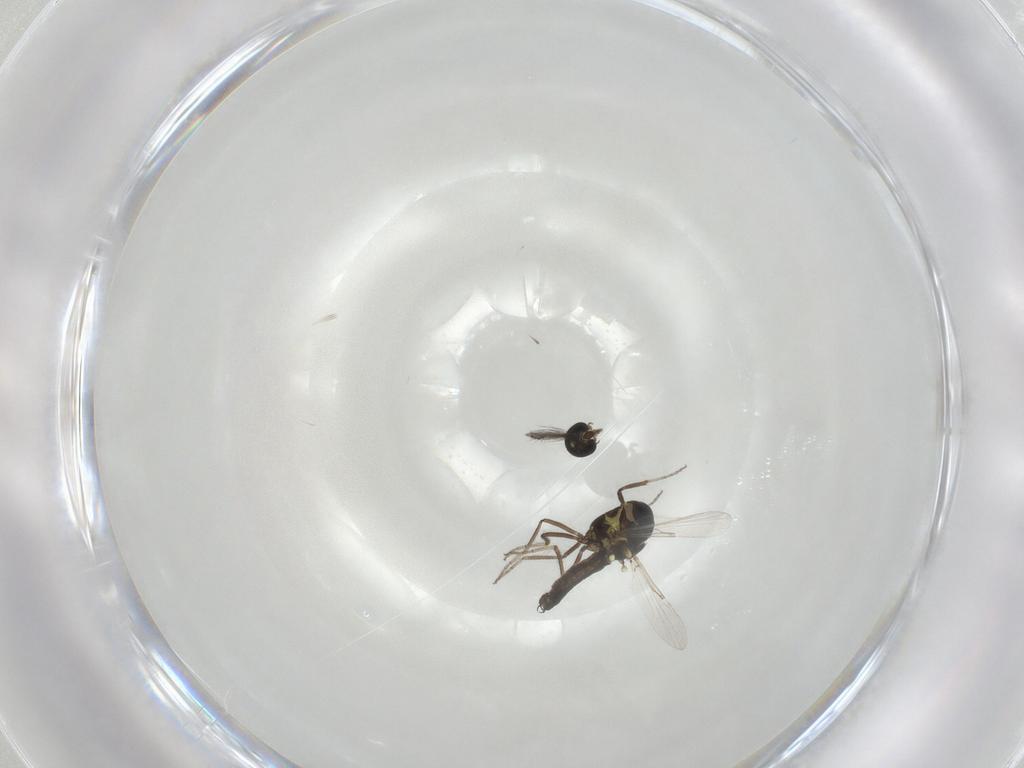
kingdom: Animalia
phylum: Arthropoda
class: Insecta
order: Diptera
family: Ceratopogonidae
